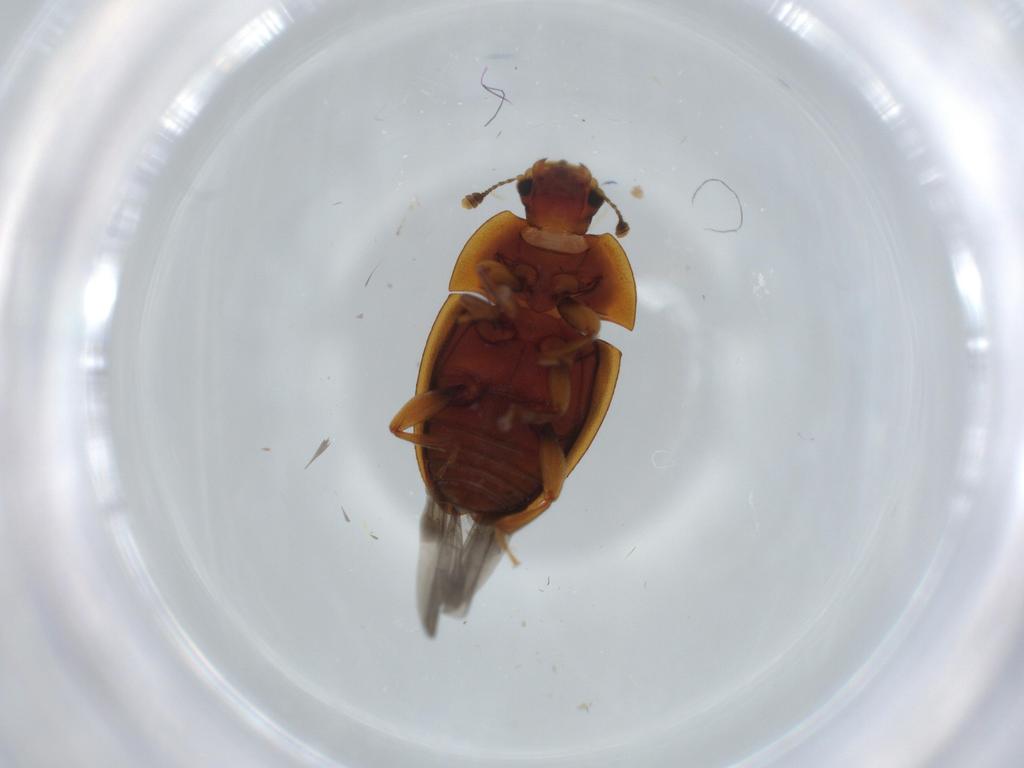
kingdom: Animalia
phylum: Arthropoda
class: Insecta
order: Coleoptera
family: Nitidulidae
